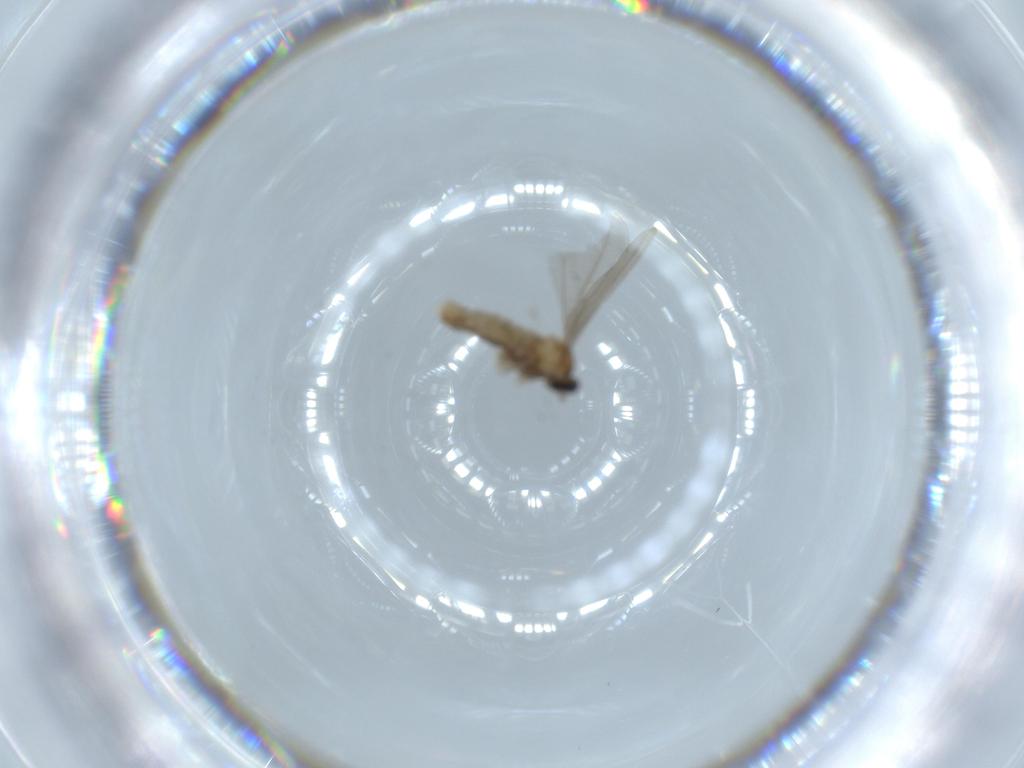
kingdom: Animalia
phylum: Arthropoda
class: Insecta
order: Diptera
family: Cecidomyiidae
